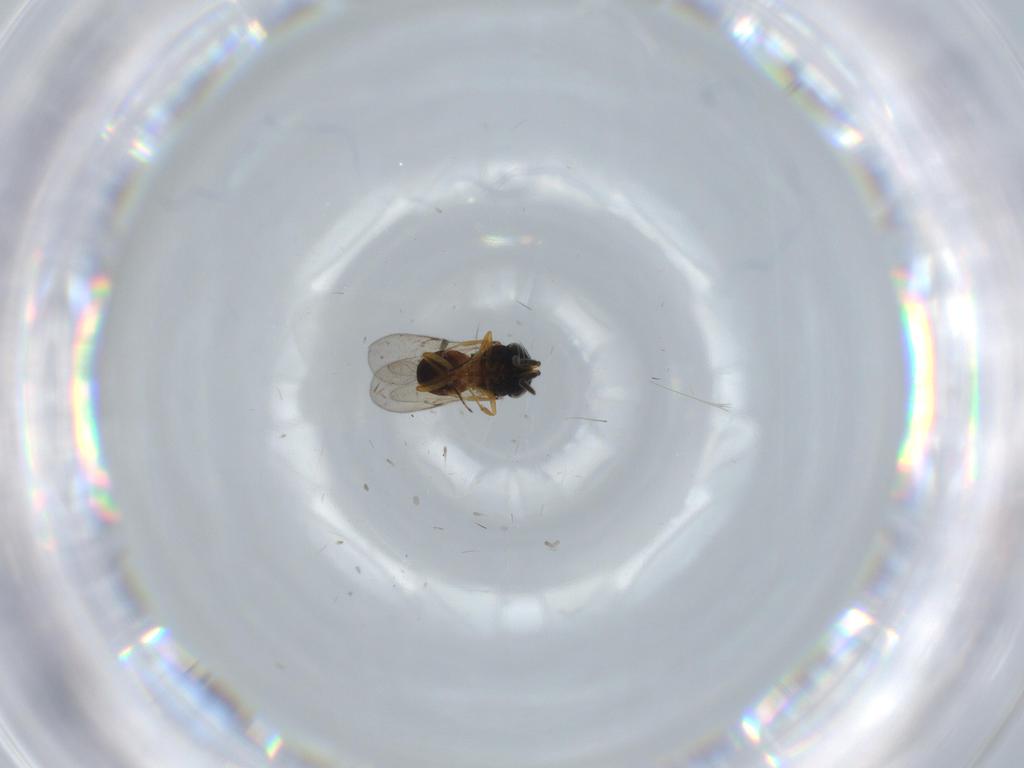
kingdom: Animalia
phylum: Arthropoda
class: Insecta
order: Hymenoptera
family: Scelionidae
